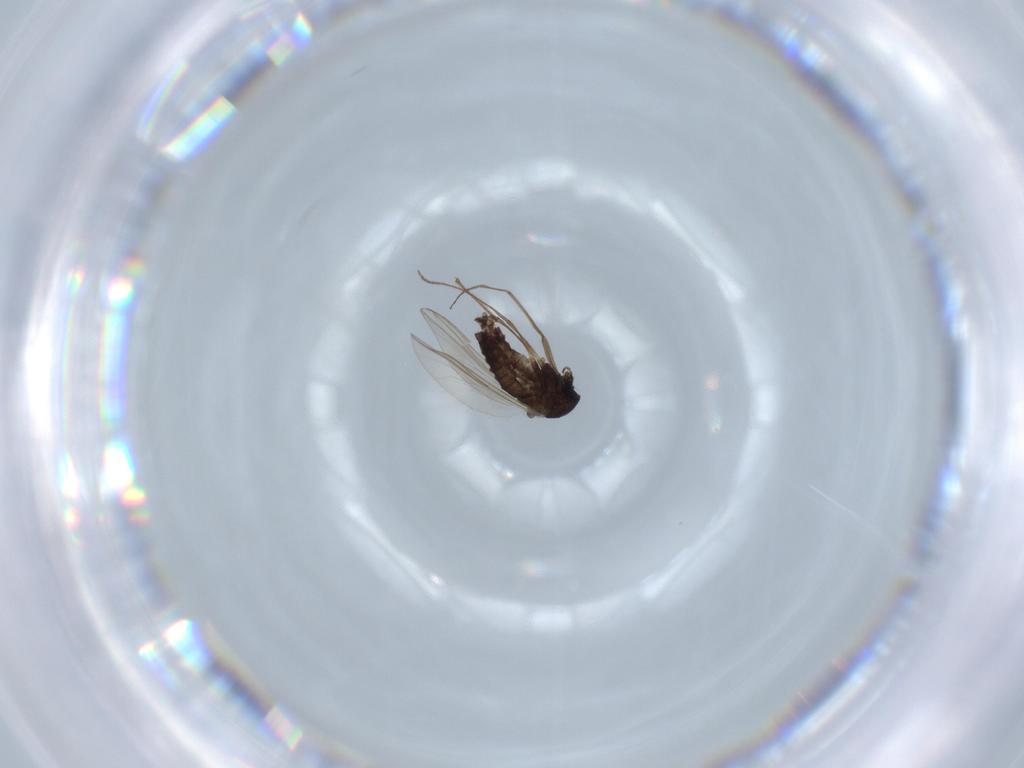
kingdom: Animalia
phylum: Arthropoda
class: Insecta
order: Diptera
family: Chironomidae
